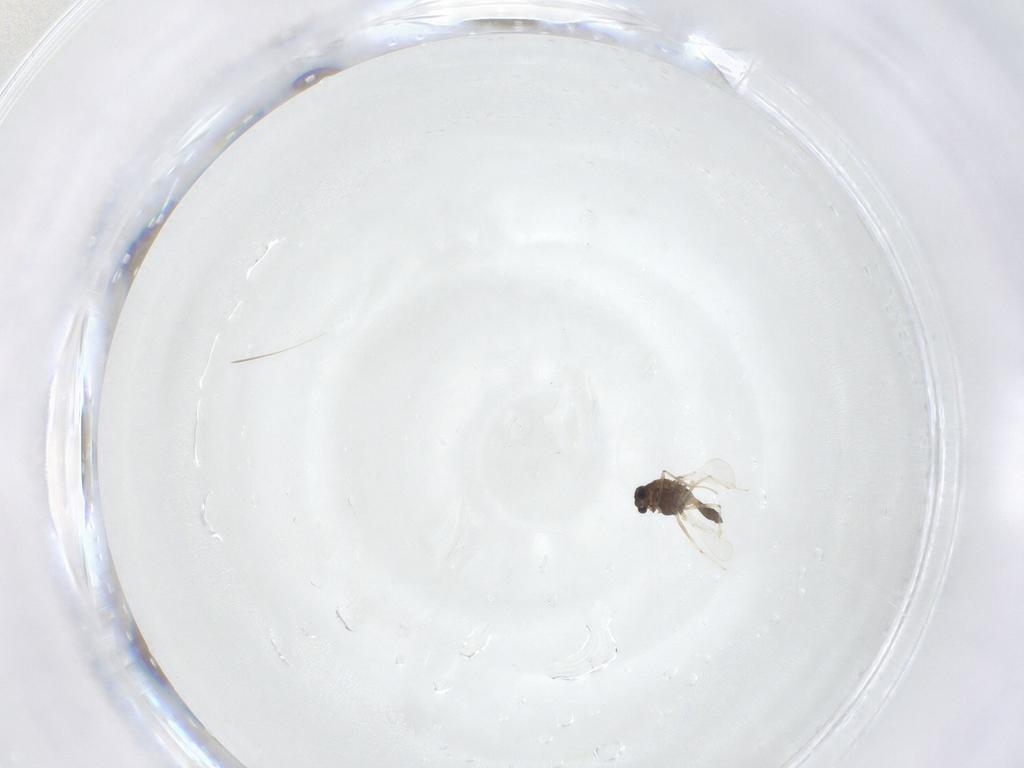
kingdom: Animalia
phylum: Arthropoda
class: Insecta
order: Diptera
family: Chironomidae
